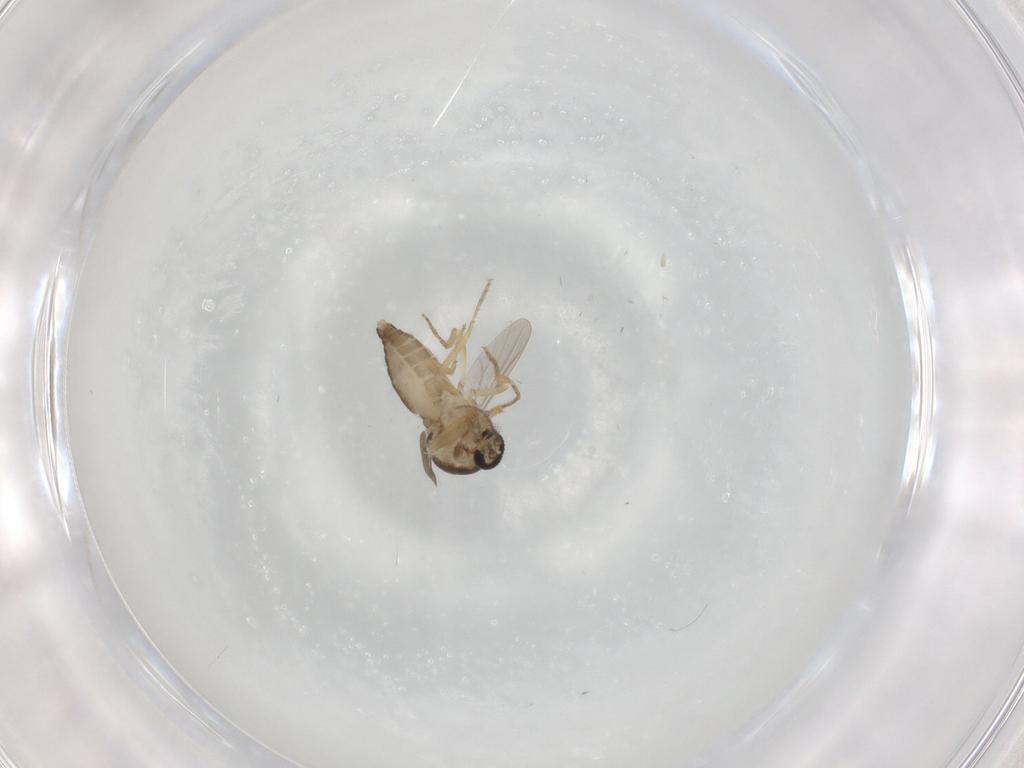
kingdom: Animalia
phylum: Arthropoda
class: Insecta
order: Diptera
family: Ceratopogonidae
